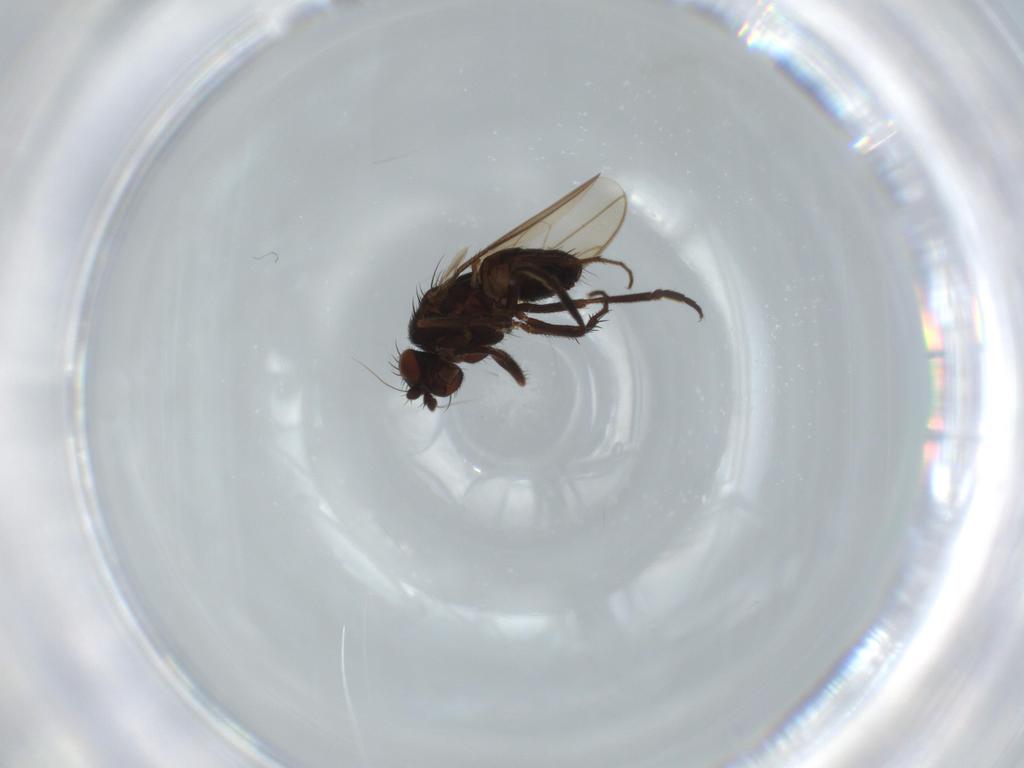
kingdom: Animalia
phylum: Arthropoda
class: Insecta
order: Diptera
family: Sphaeroceridae
